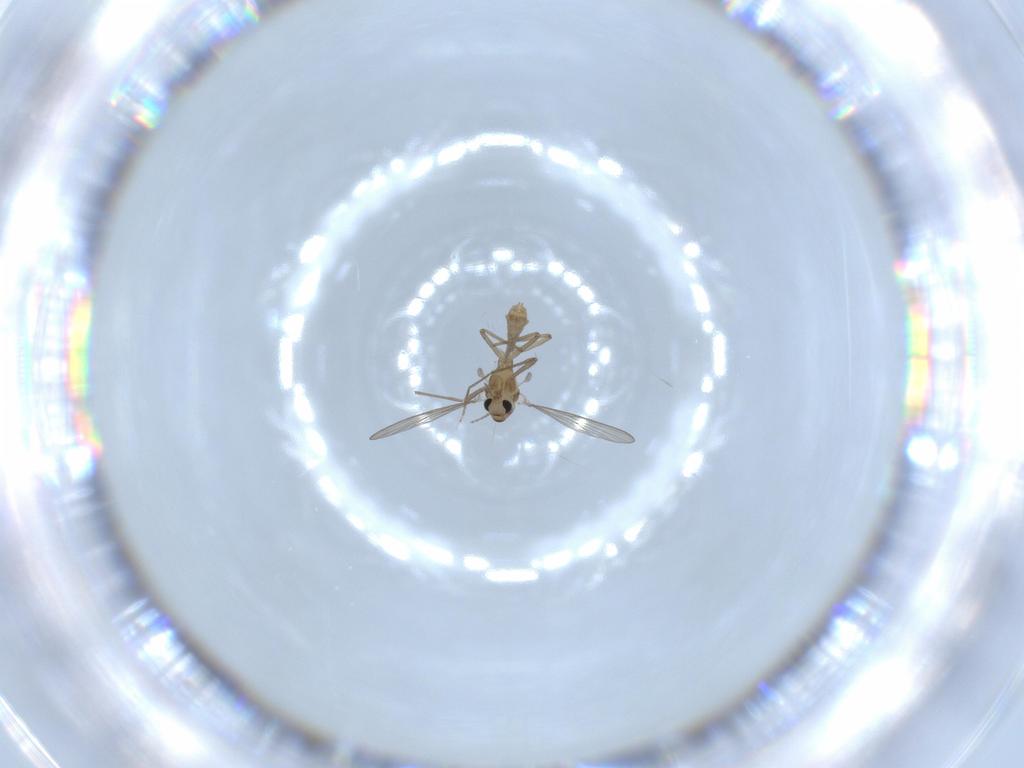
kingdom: Animalia
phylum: Arthropoda
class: Insecta
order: Diptera
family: Chironomidae
